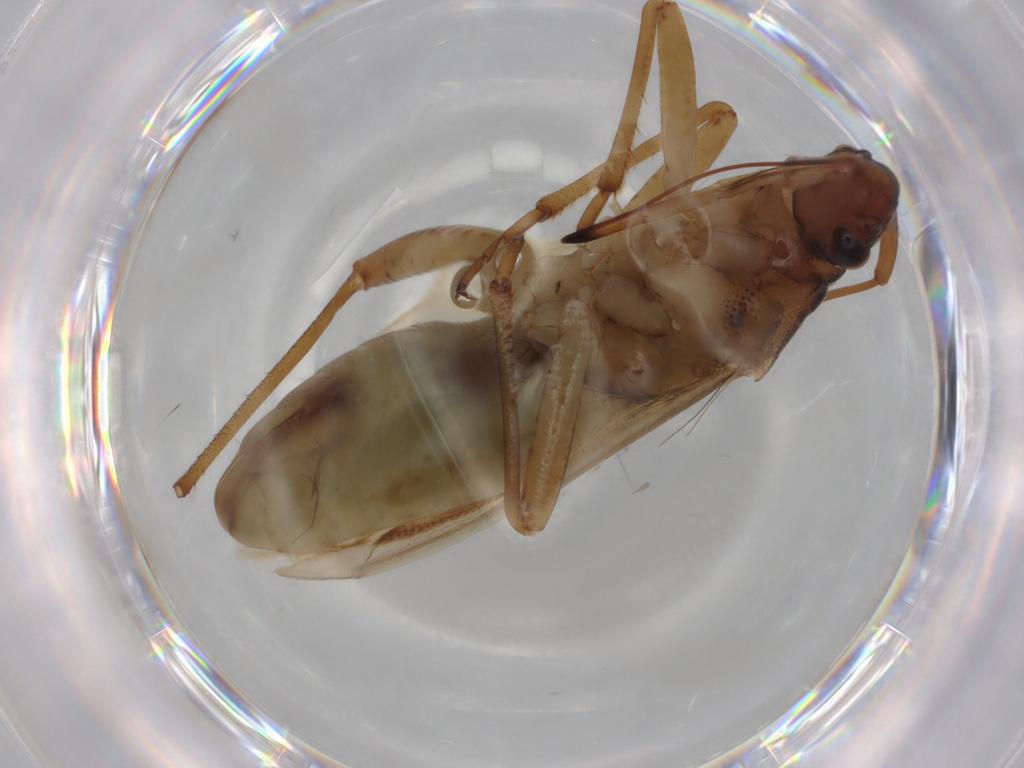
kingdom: Animalia
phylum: Arthropoda
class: Insecta
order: Hemiptera
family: Miridae
